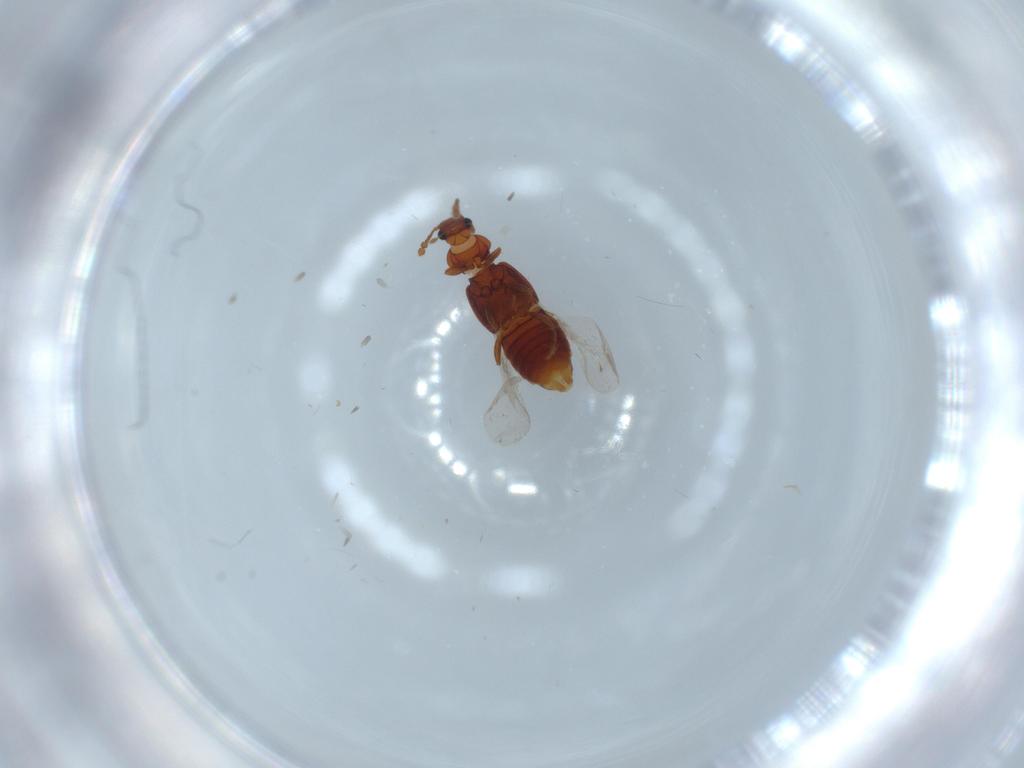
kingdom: Animalia
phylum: Arthropoda
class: Insecta
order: Coleoptera
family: Staphylinidae
